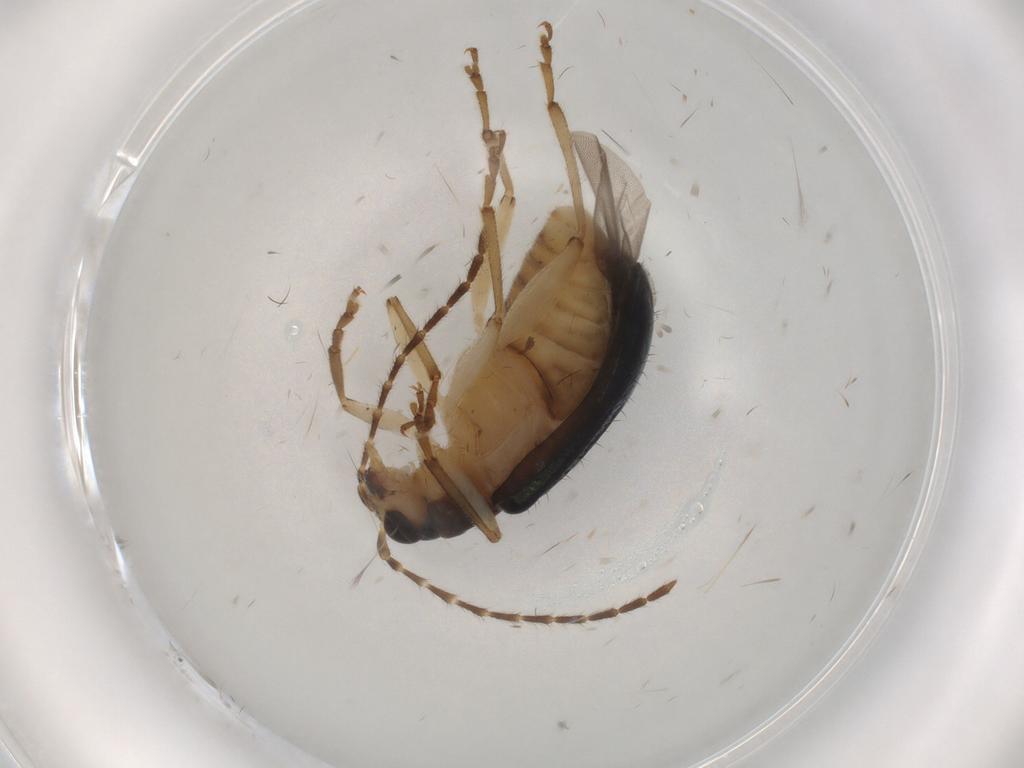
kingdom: Animalia
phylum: Arthropoda
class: Insecta
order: Coleoptera
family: Chrysomelidae
